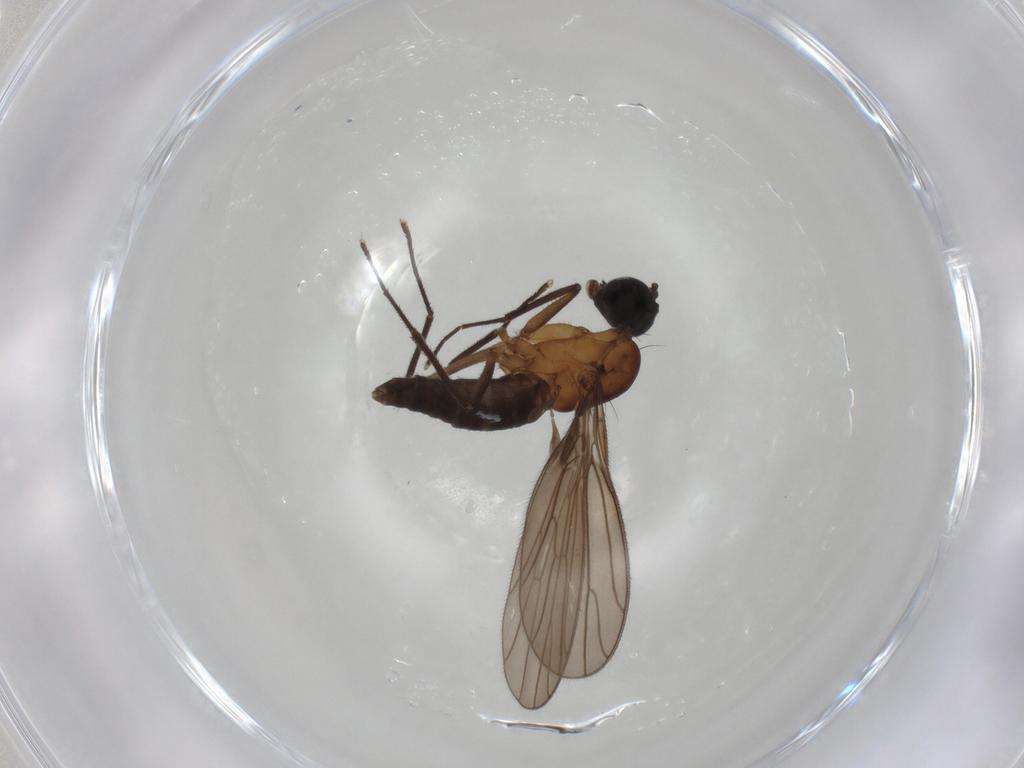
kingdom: Animalia
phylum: Arthropoda
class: Insecta
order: Diptera
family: Empididae
